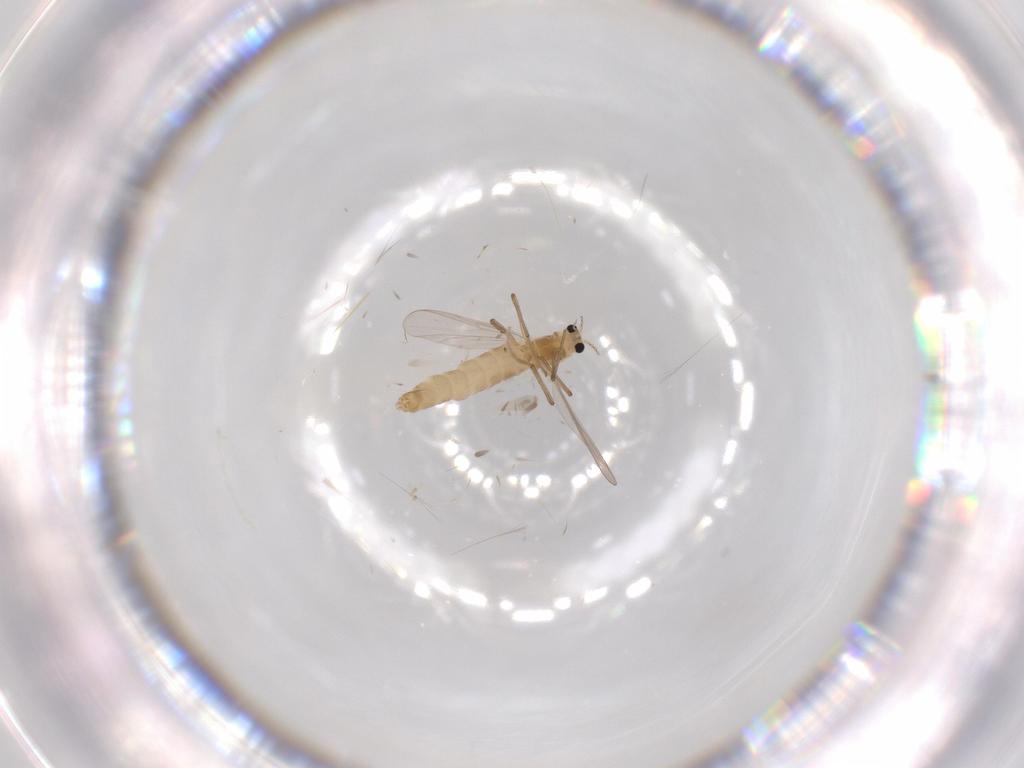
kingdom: Animalia
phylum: Arthropoda
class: Insecta
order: Diptera
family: Chironomidae
